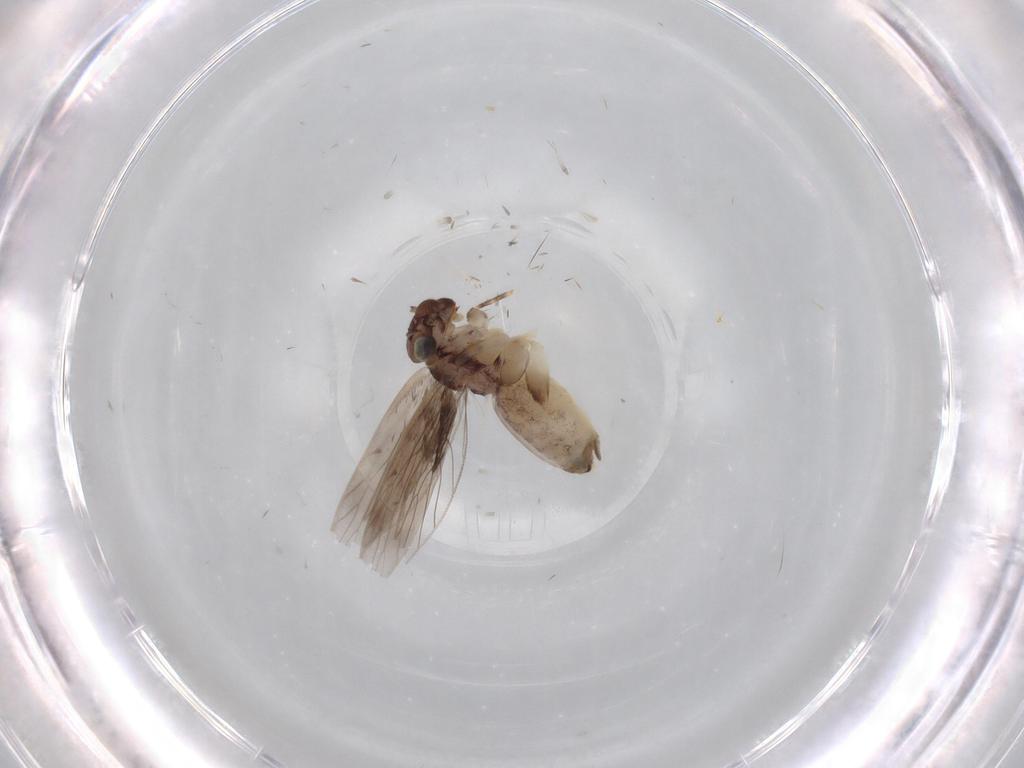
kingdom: Animalia
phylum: Arthropoda
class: Insecta
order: Psocodea
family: Lepidopsocidae
